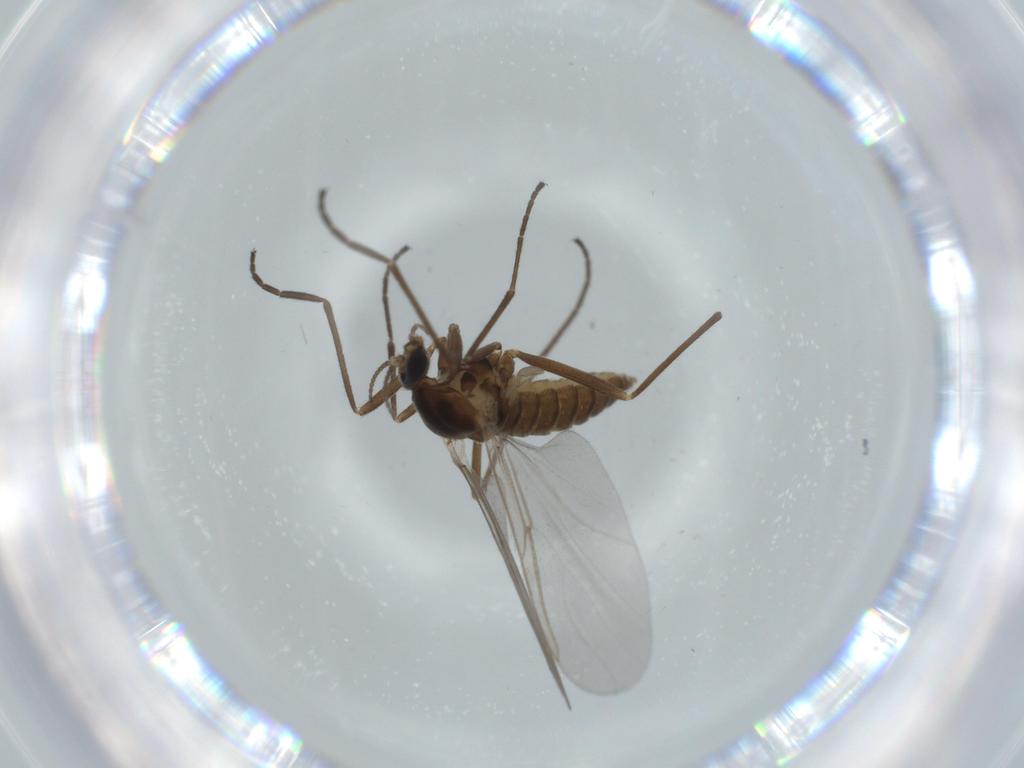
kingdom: Animalia
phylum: Arthropoda
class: Insecta
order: Diptera
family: Cecidomyiidae
